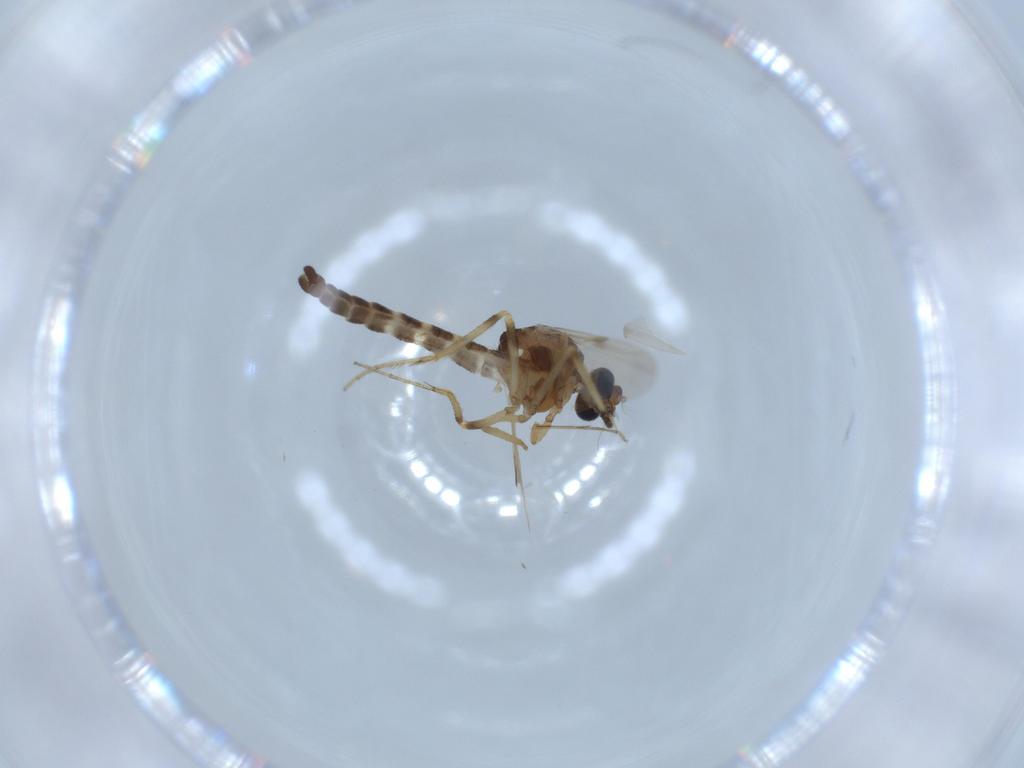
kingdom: Animalia
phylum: Arthropoda
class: Insecta
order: Diptera
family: Ceratopogonidae
